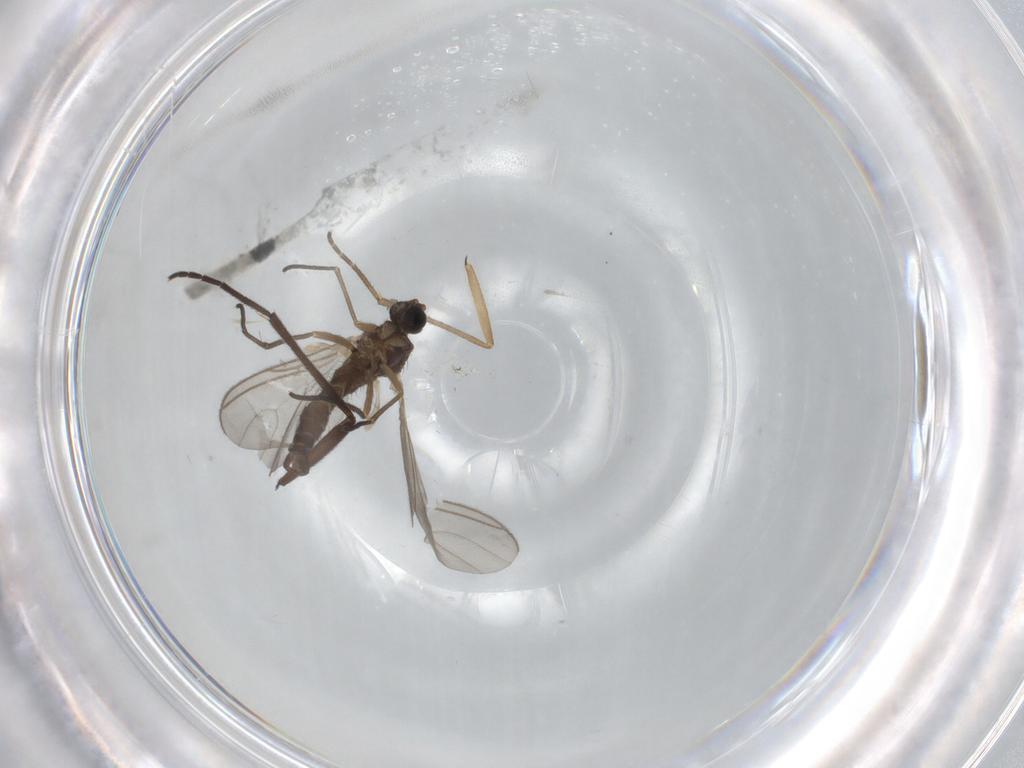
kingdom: Animalia
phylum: Arthropoda
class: Insecta
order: Diptera
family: Sciaridae
